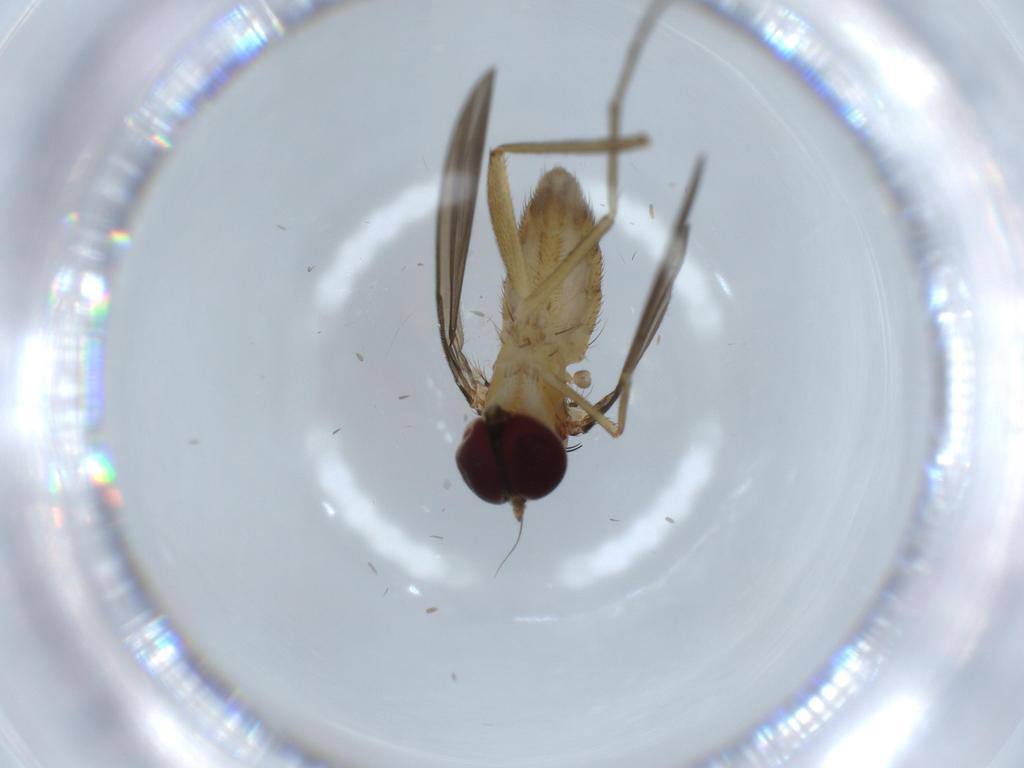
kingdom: Animalia
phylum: Arthropoda
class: Insecta
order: Diptera
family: Dolichopodidae
